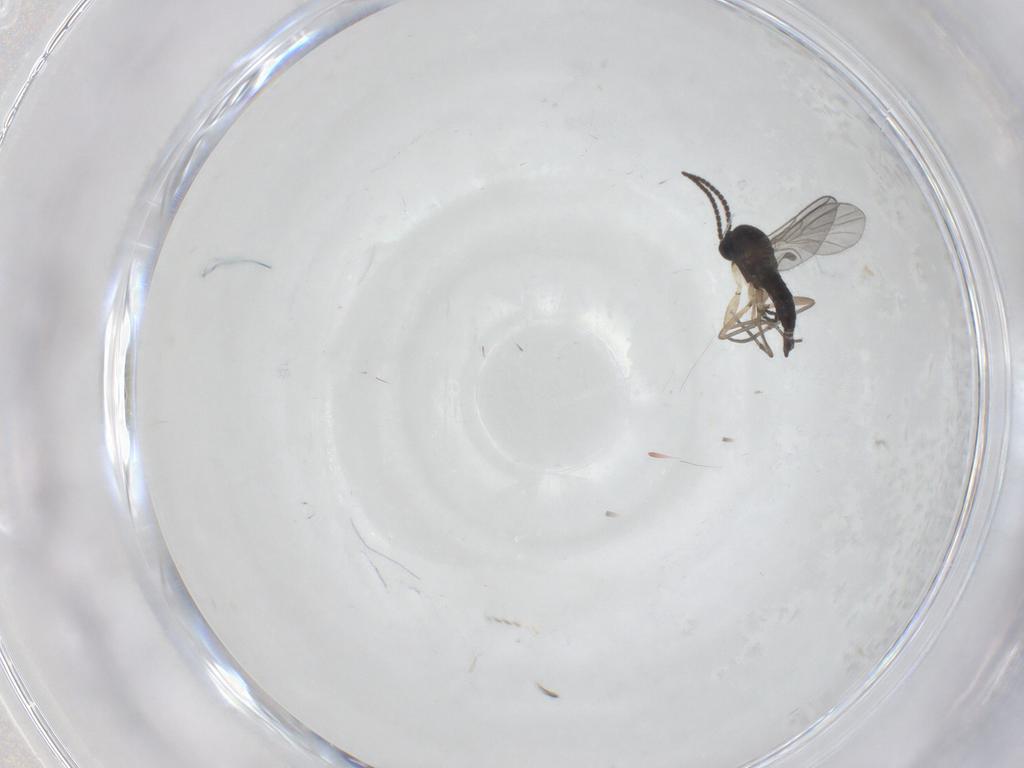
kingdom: Animalia
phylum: Arthropoda
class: Insecta
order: Diptera
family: Sciaridae
